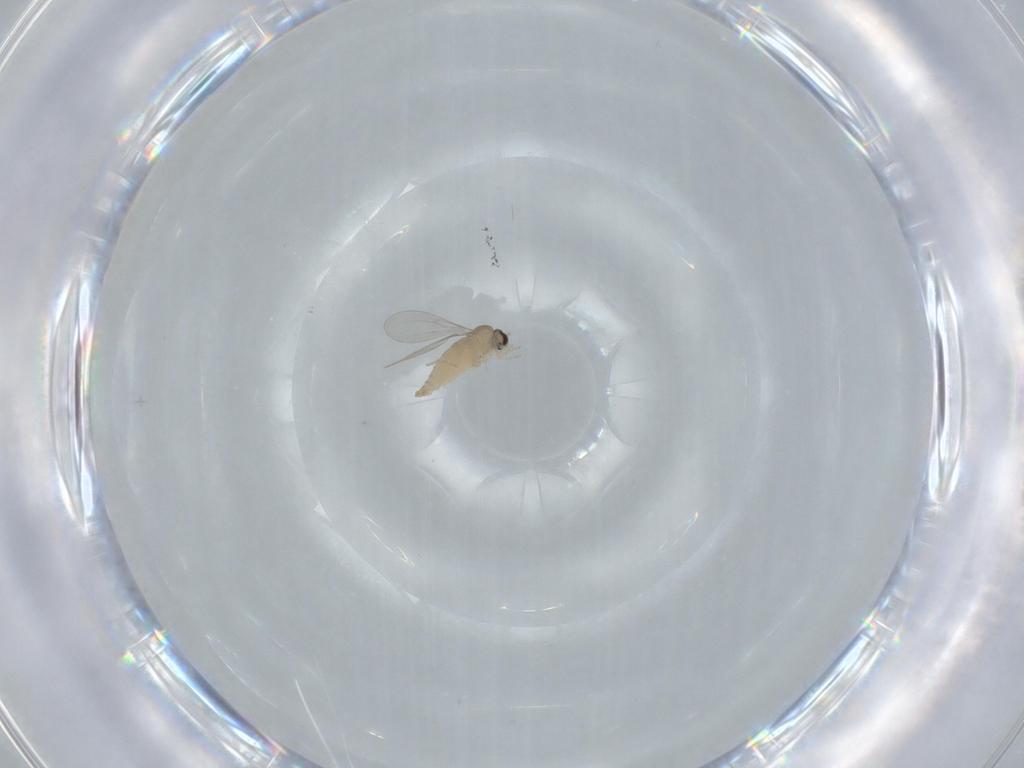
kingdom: Animalia
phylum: Arthropoda
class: Insecta
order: Diptera
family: Cecidomyiidae
